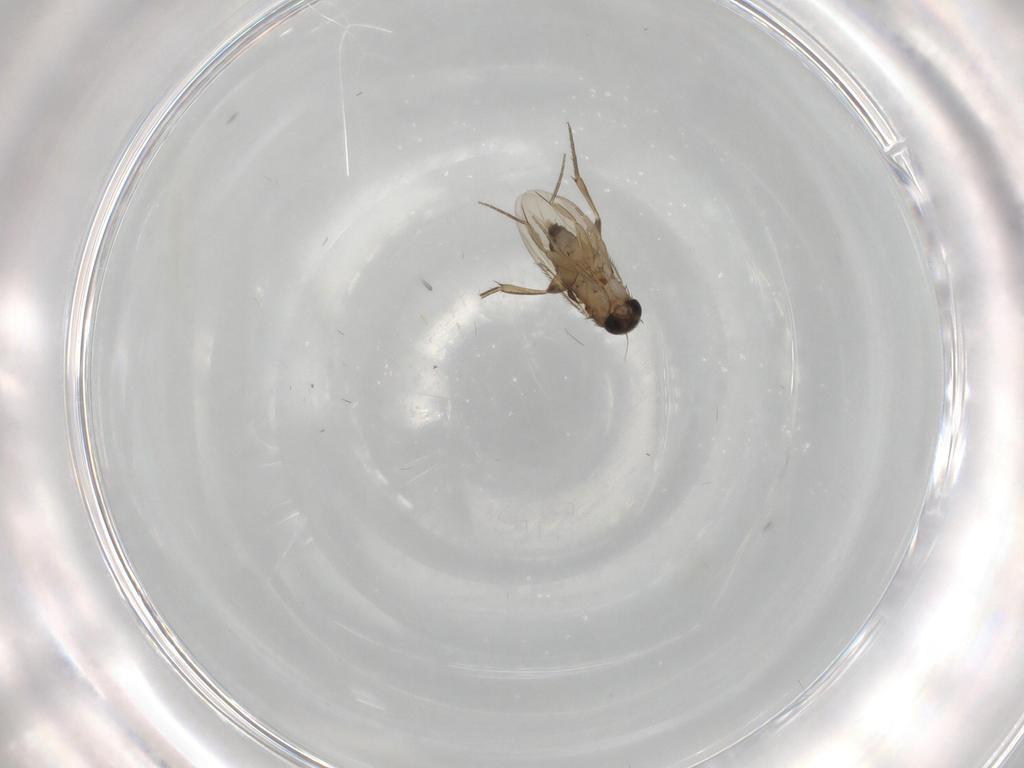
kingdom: Animalia
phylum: Arthropoda
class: Insecta
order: Diptera
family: Phoridae
